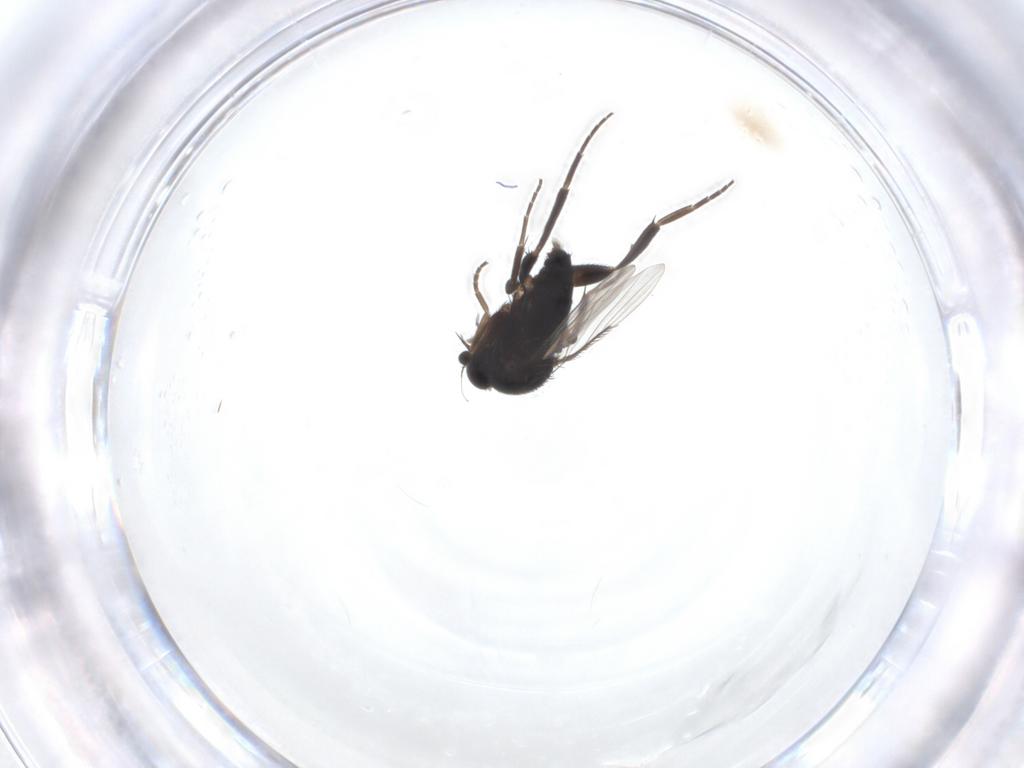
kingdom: Animalia
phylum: Arthropoda
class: Insecta
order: Diptera
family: Phoridae
